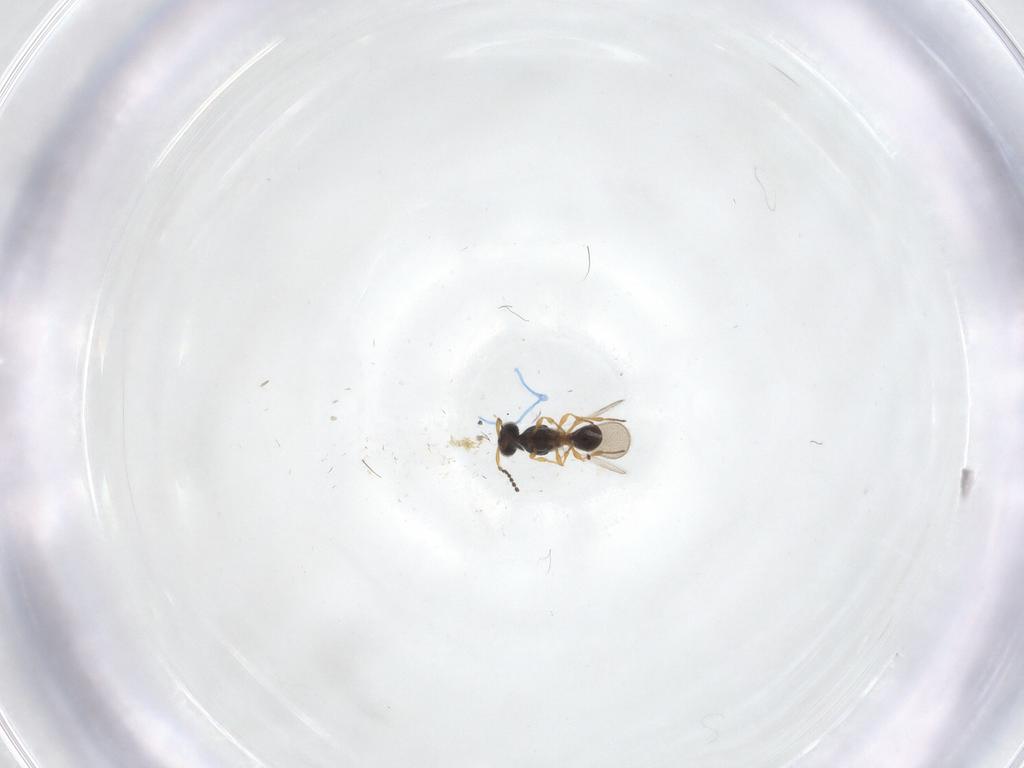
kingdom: Animalia
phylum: Arthropoda
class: Insecta
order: Hymenoptera
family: Platygastridae
